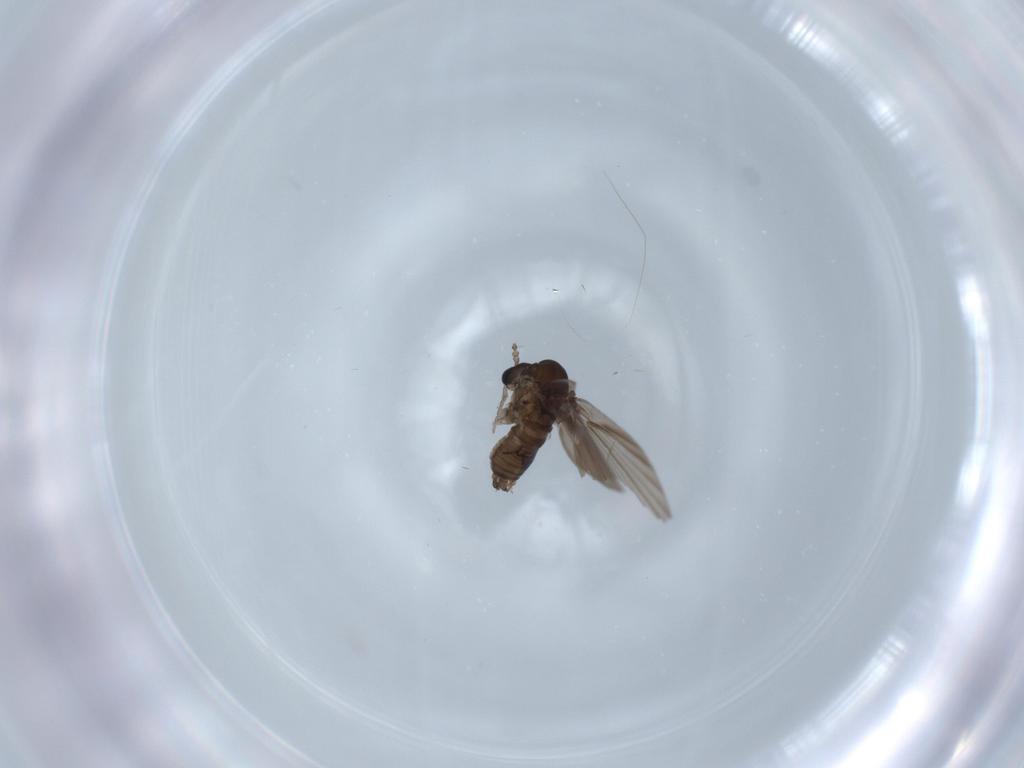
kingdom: Animalia
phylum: Arthropoda
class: Insecta
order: Diptera
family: Psychodidae
